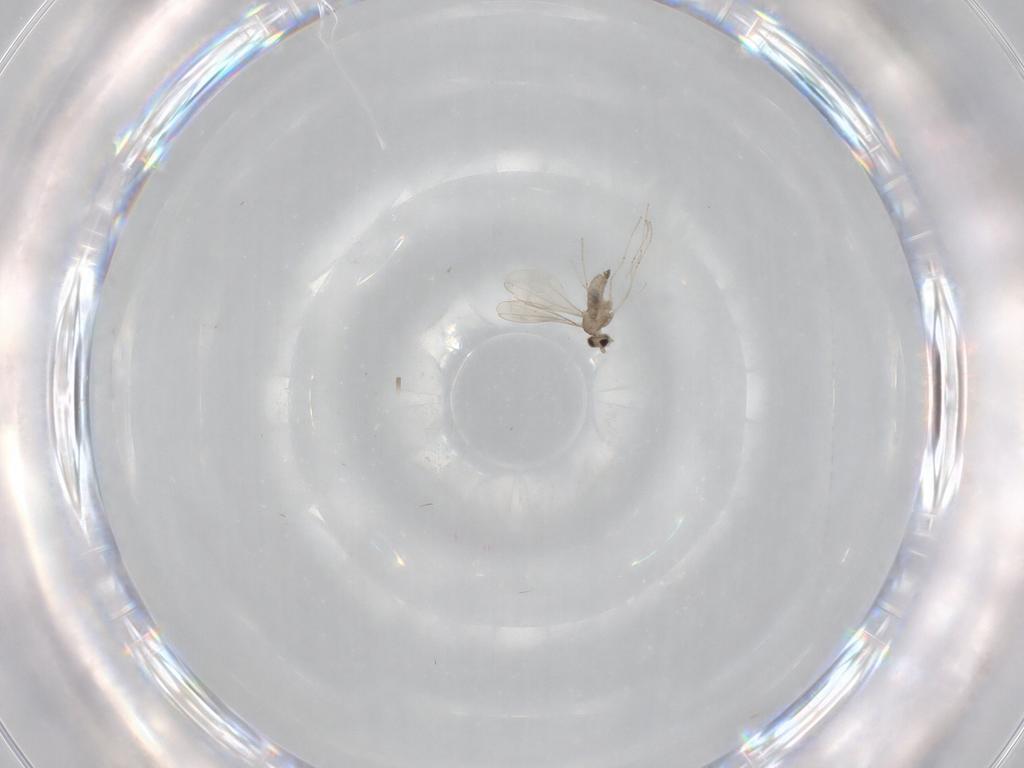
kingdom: Animalia
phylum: Arthropoda
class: Insecta
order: Diptera
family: Cecidomyiidae
